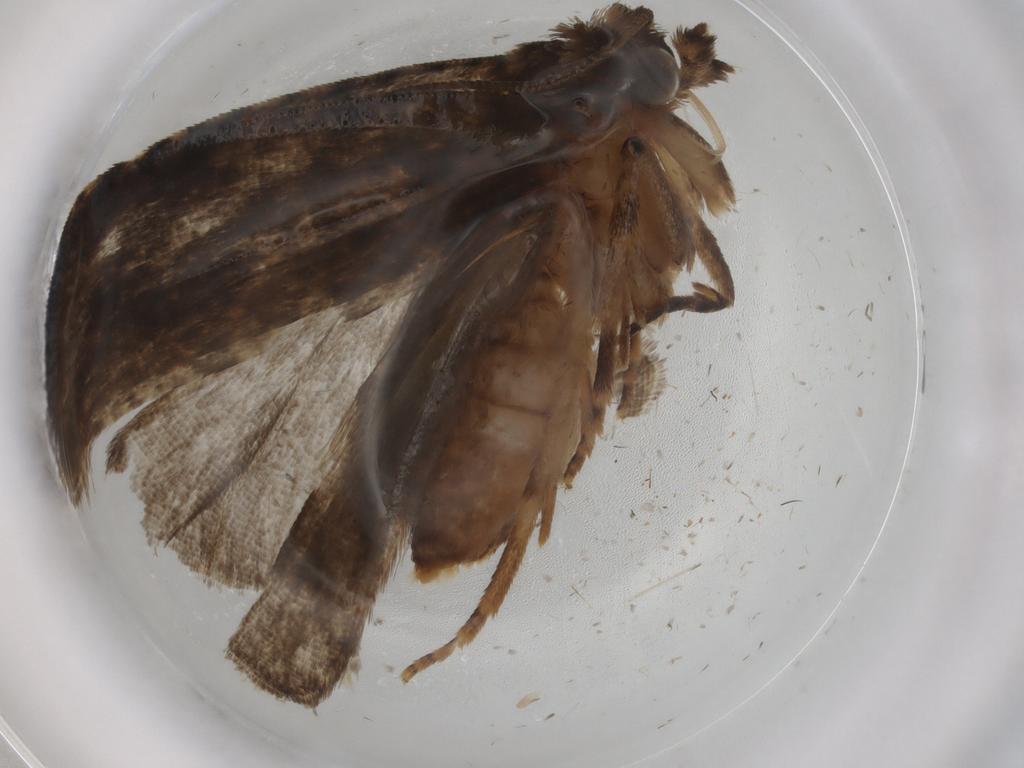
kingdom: Animalia
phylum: Arthropoda
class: Insecta
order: Lepidoptera
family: Tortricidae
